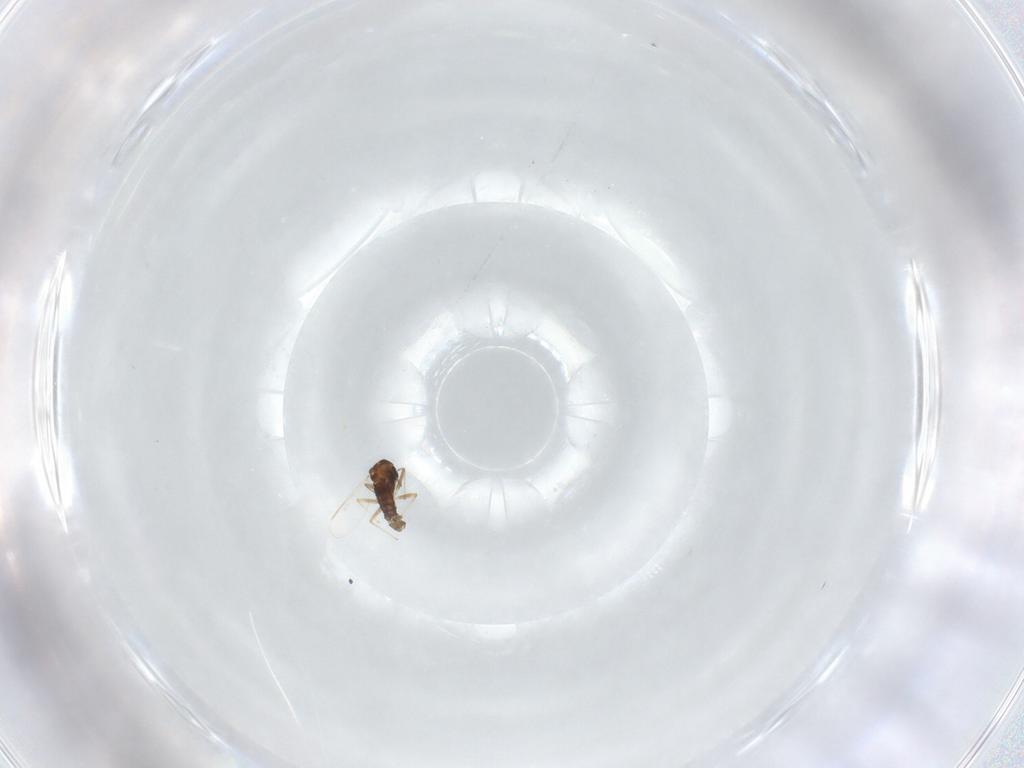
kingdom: Animalia
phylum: Arthropoda
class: Insecta
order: Diptera
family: Chironomidae
